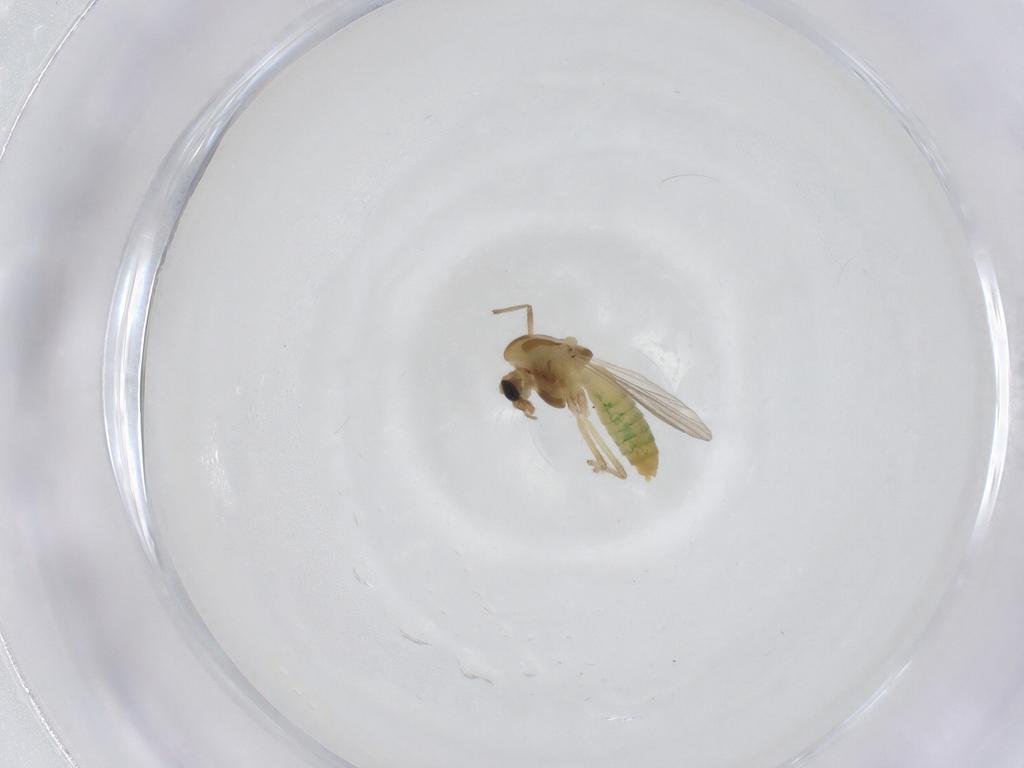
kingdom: Animalia
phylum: Arthropoda
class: Insecta
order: Diptera
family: Chironomidae
